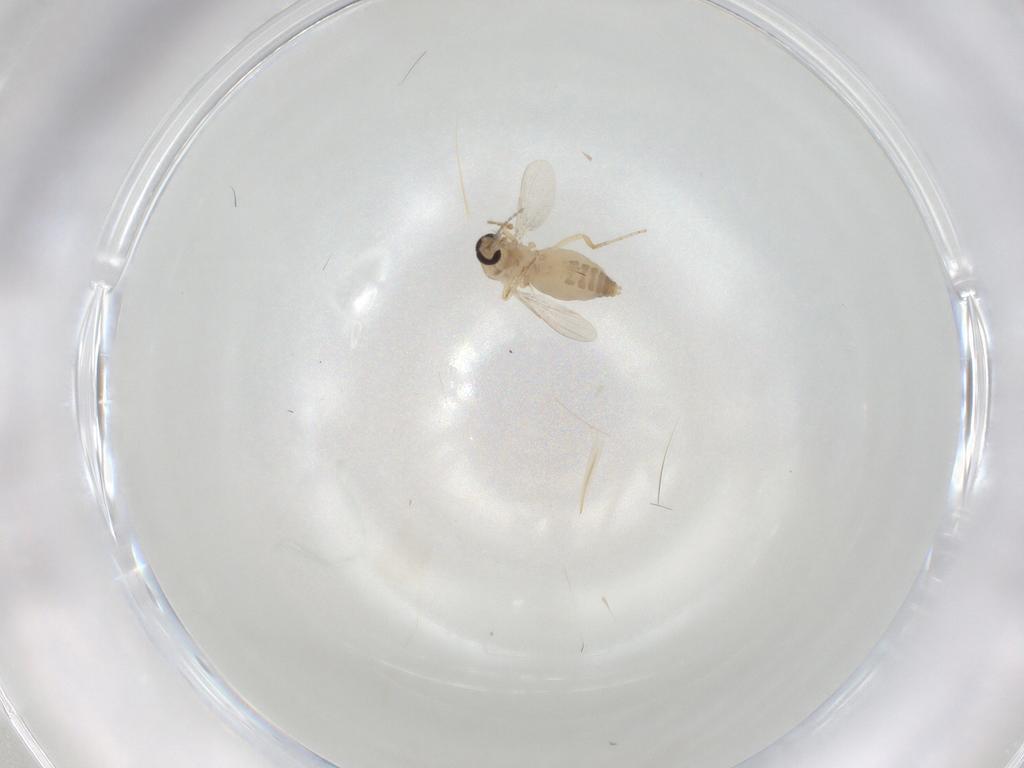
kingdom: Animalia
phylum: Arthropoda
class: Insecta
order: Diptera
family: Ceratopogonidae
